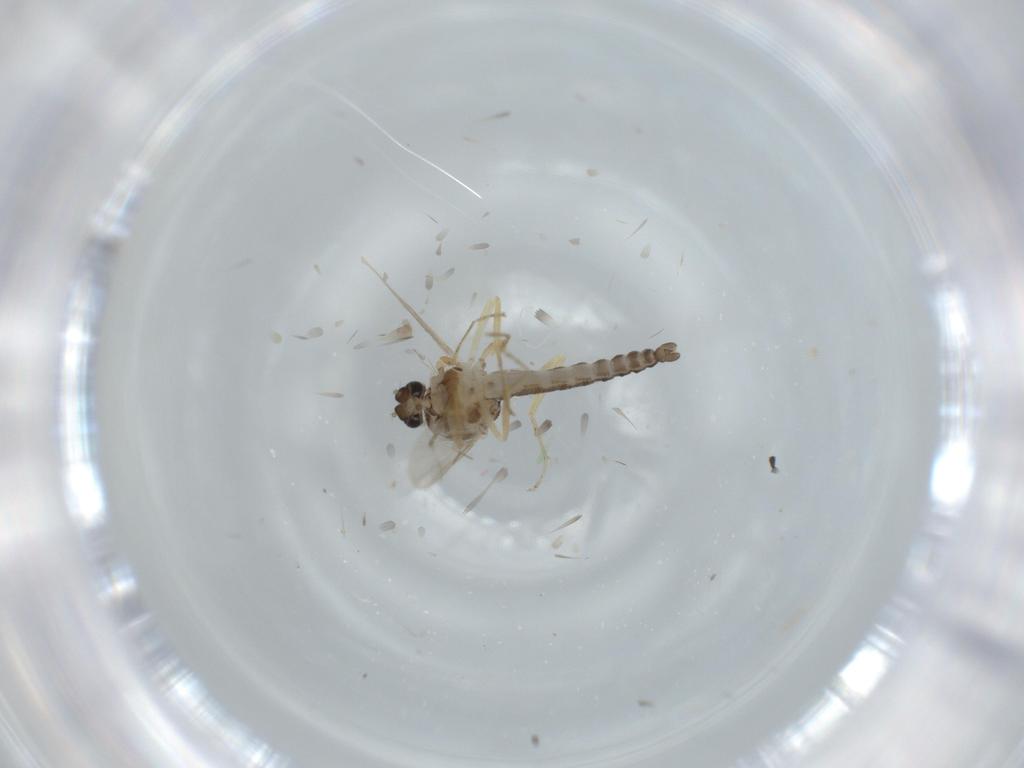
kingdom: Animalia
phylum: Arthropoda
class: Insecta
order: Diptera
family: Ceratopogonidae
